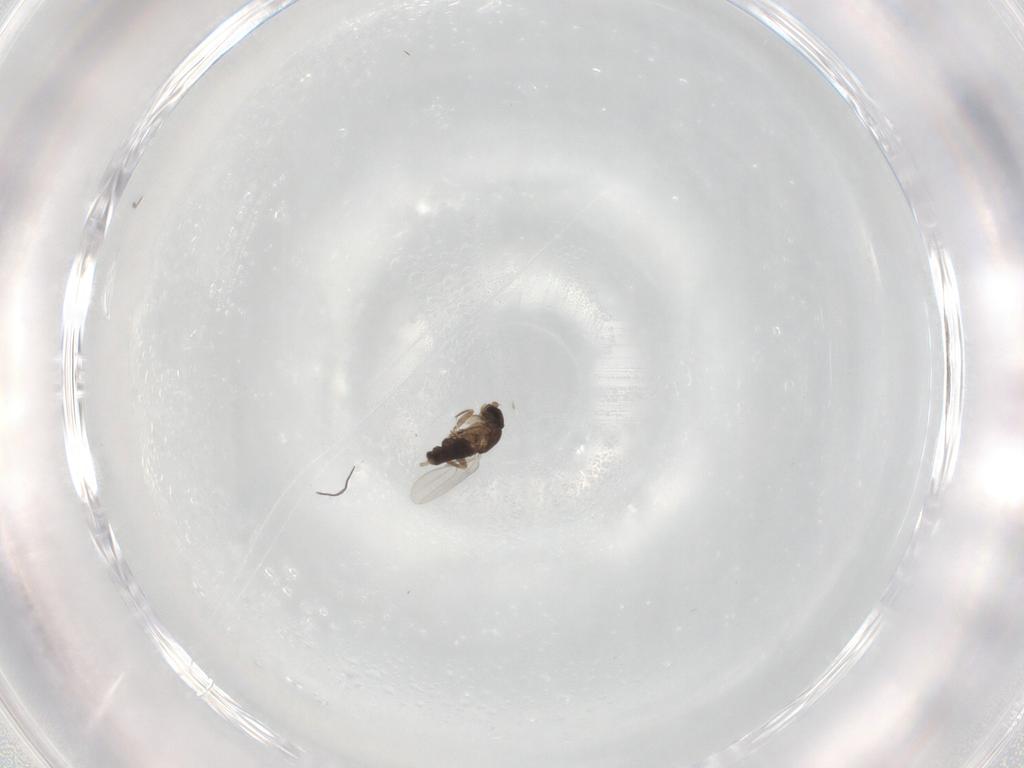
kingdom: Animalia
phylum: Arthropoda
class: Insecta
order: Diptera
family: Phoridae
